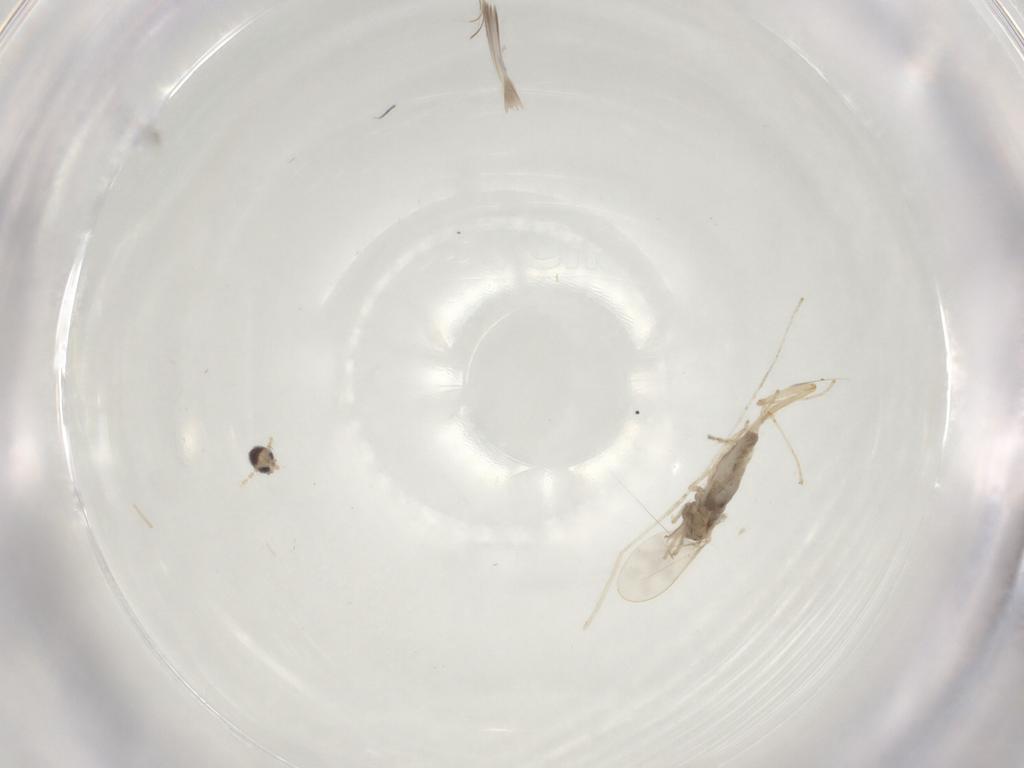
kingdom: Animalia
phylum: Arthropoda
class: Insecta
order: Diptera
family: Ceratopogonidae
